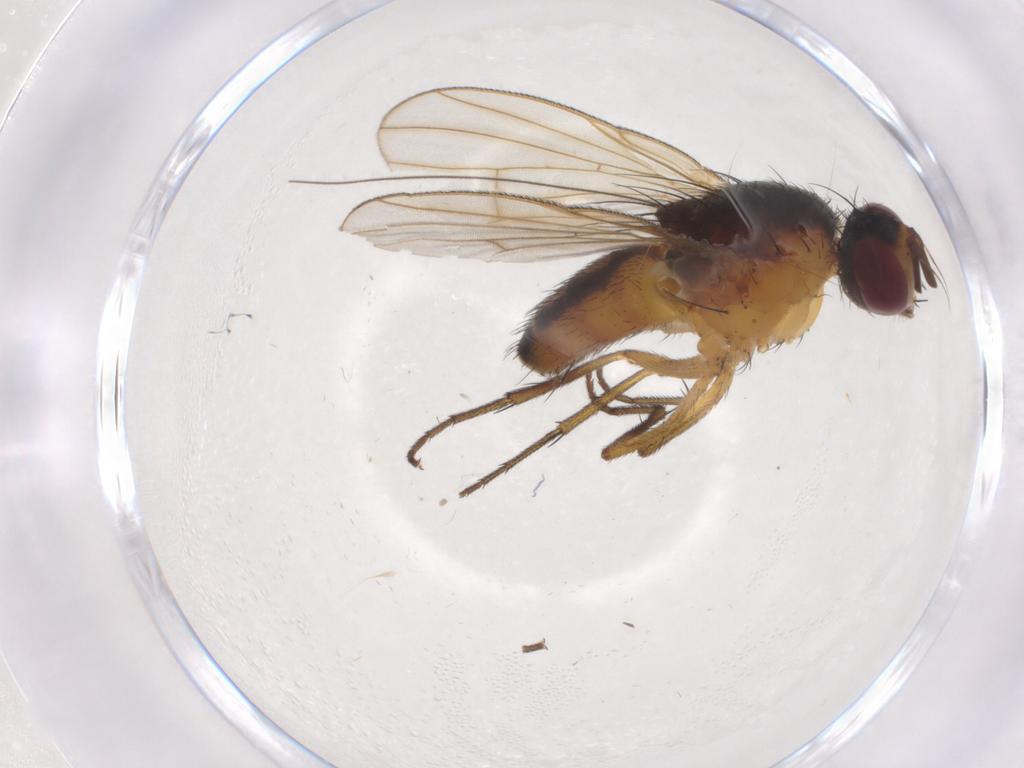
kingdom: Animalia
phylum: Arthropoda
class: Insecta
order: Diptera
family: Muscidae
